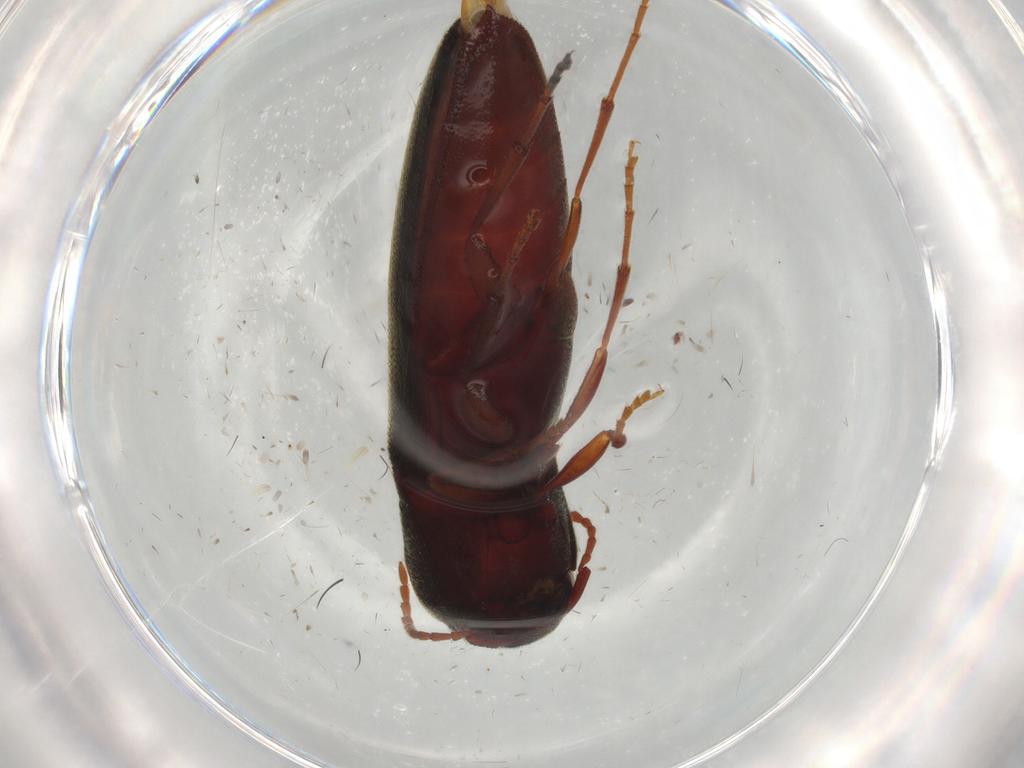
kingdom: Animalia
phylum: Arthropoda
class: Insecta
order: Coleoptera
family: Eucnemidae
